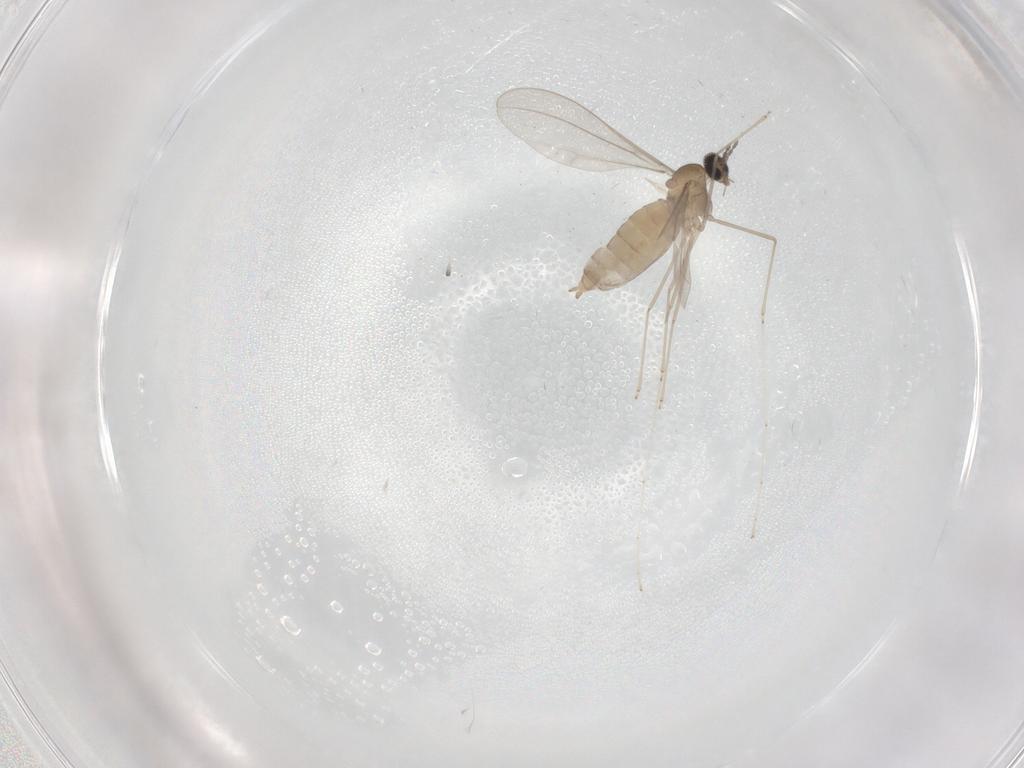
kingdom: Animalia
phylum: Arthropoda
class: Insecta
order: Diptera
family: Cecidomyiidae
